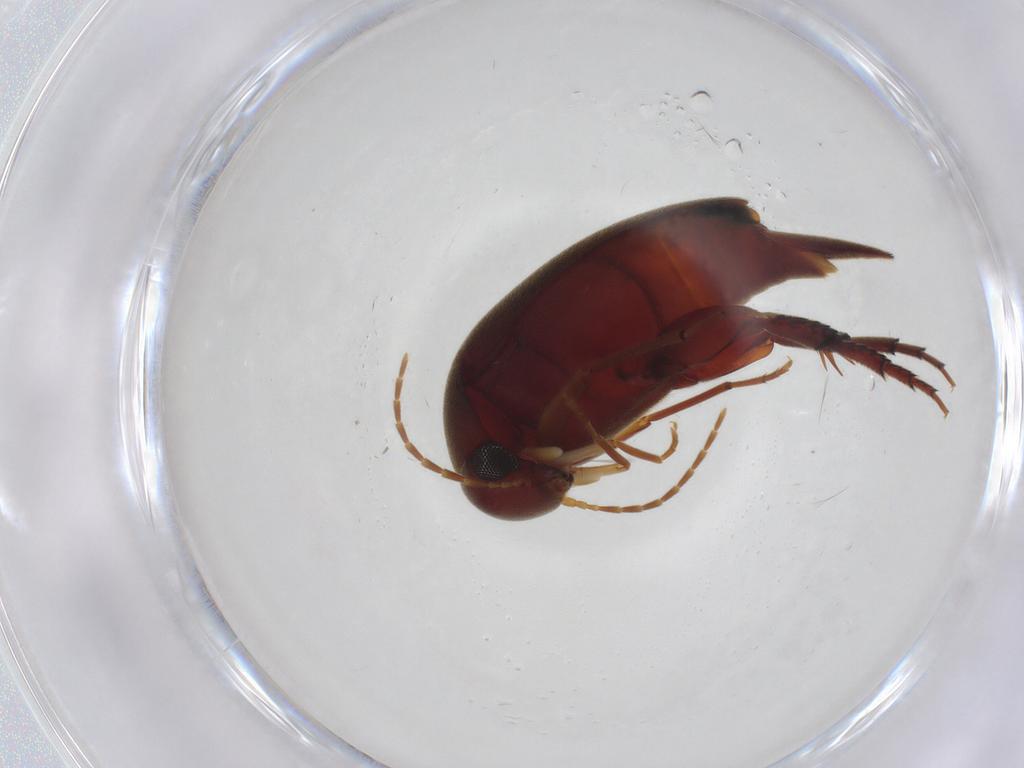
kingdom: Animalia
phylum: Arthropoda
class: Insecta
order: Coleoptera
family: Mordellidae
